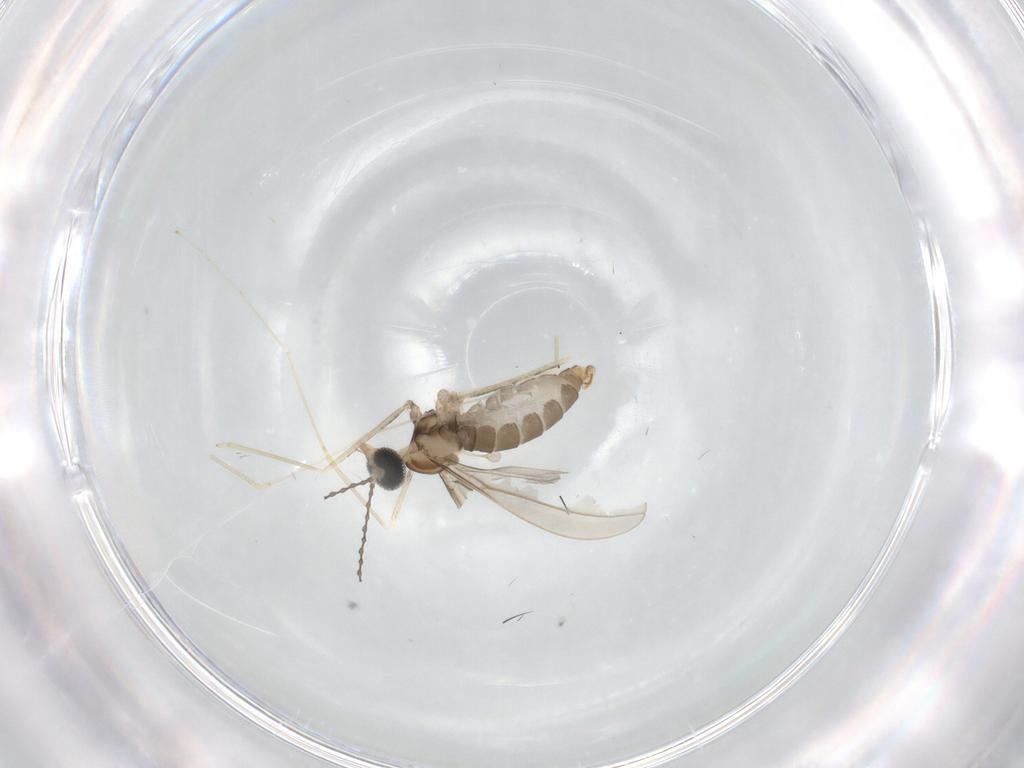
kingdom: Animalia
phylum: Arthropoda
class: Insecta
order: Diptera
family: Cecidomyiidae
